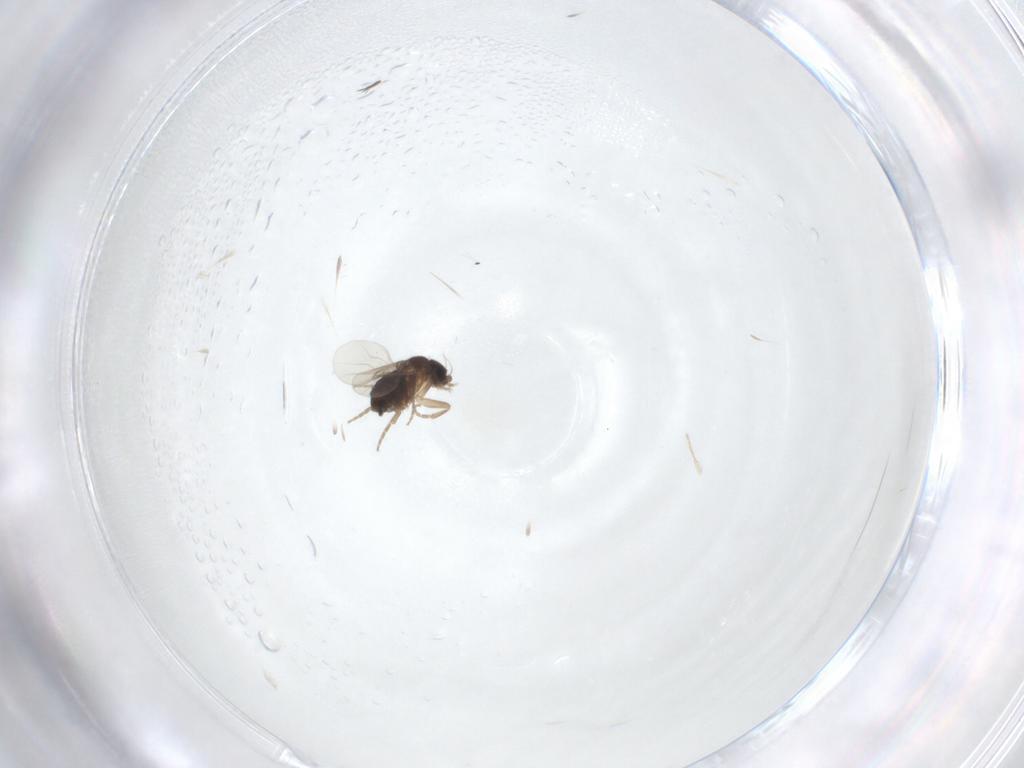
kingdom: Animalia
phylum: Arthropoda
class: Insecta
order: Diptera
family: Phoridae
